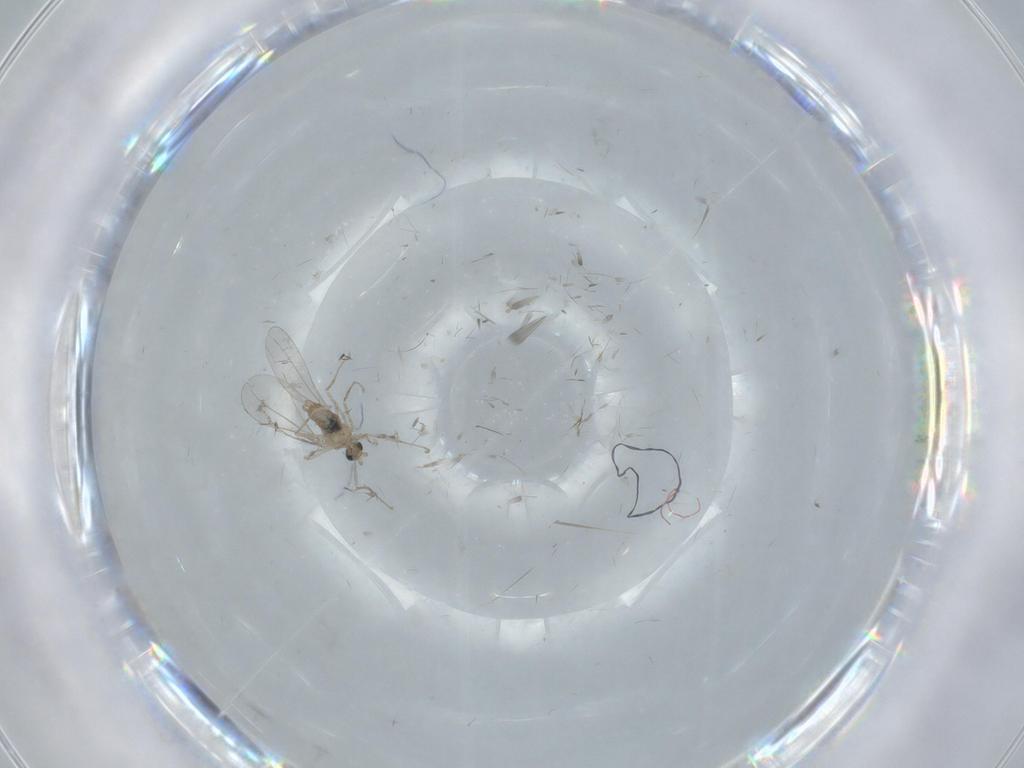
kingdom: Animalia
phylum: Arthropoda
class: Insecta
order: Diptera
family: Cecidomyiidae
